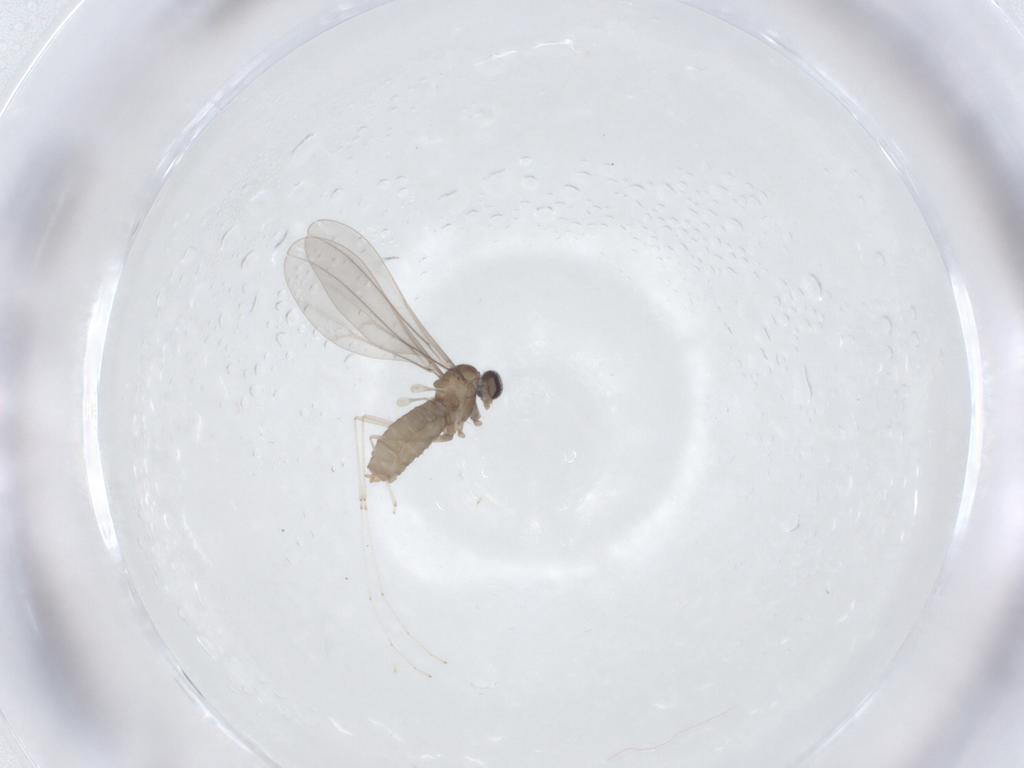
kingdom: Animalia
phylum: Arthropoda
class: Insecta
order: Diptera
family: Cecidomyiidae
